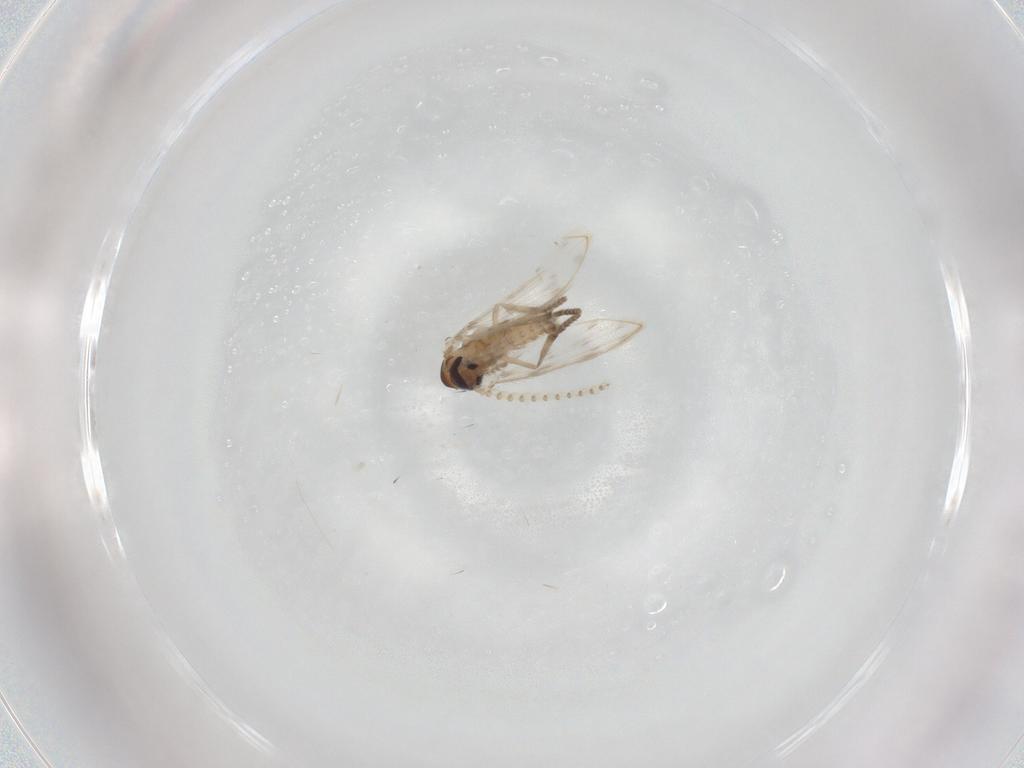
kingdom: Animalia
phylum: Arthropoda
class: Insecta
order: Diptera
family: Psychodidae
